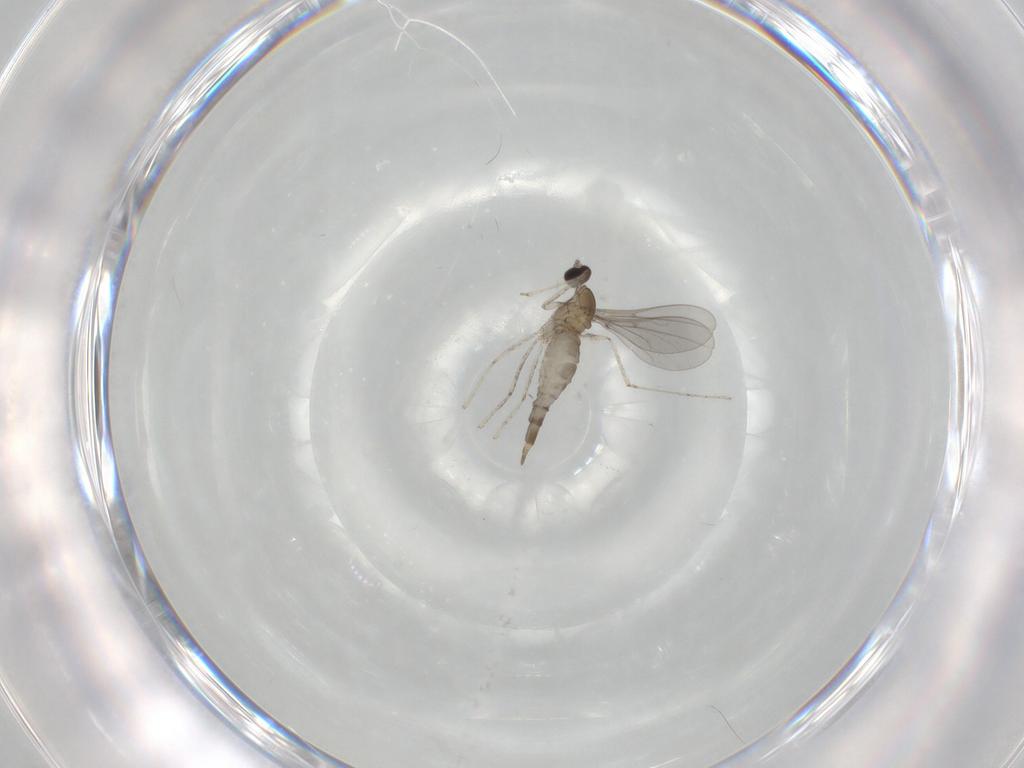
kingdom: Animalia
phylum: Arthropoda
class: Insecta
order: Diptera
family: Cecidomyiidae
